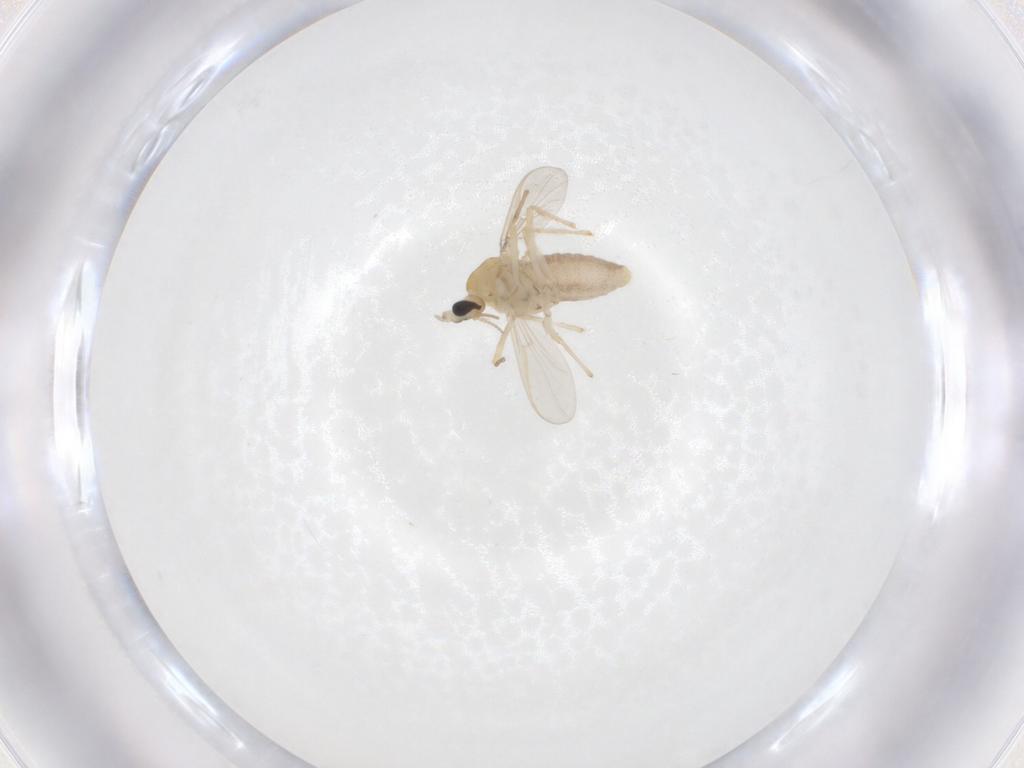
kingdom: Animalia
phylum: Arthropoda
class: Insecta
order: Diptera
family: Chironomidae
